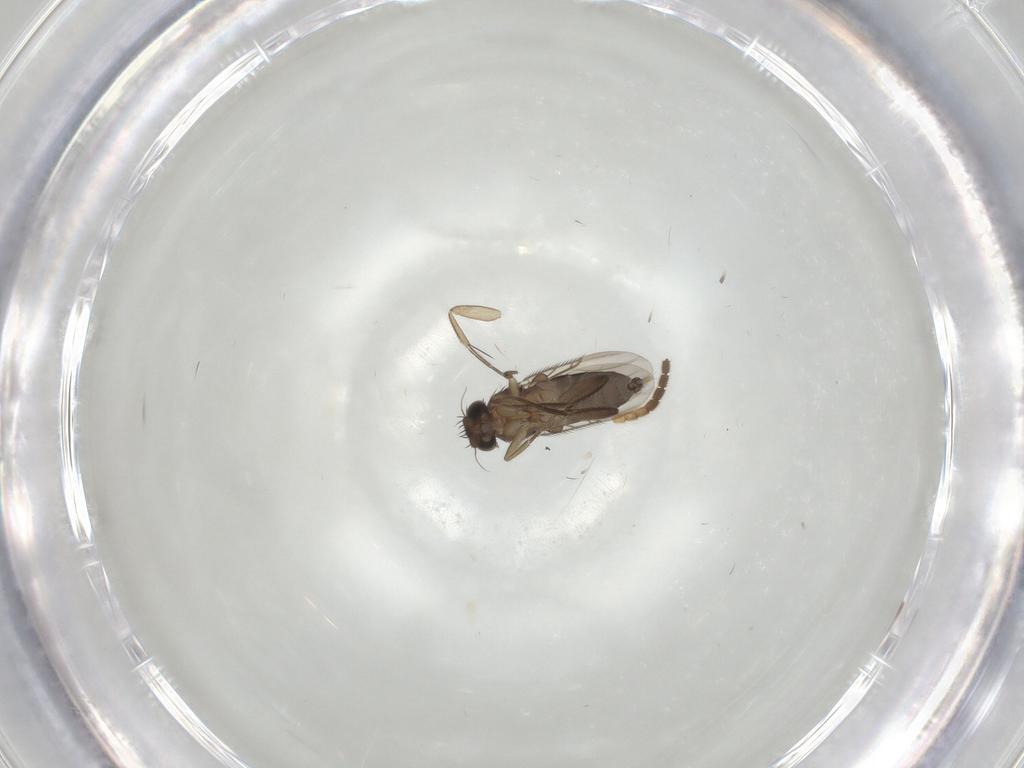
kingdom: Animalia
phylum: Arthropoda
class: Insecta
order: Diptera
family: Phoridae
